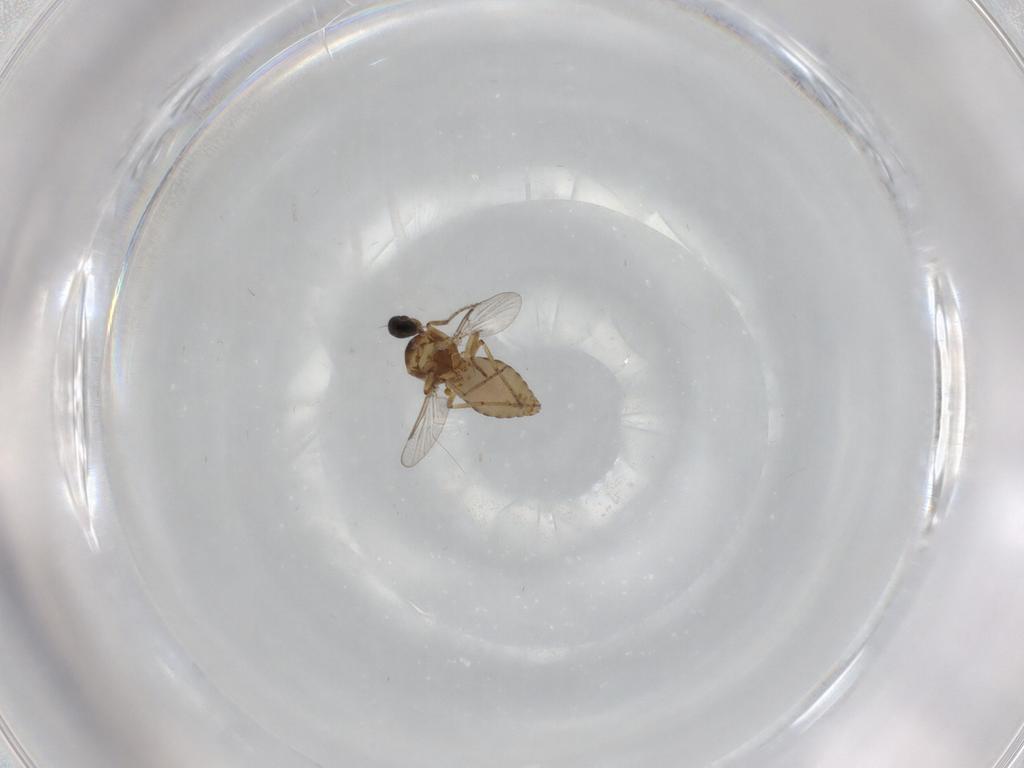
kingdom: Animalia
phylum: Arthropoda
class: Insecta
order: Diptera
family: Ceratopogonidae
